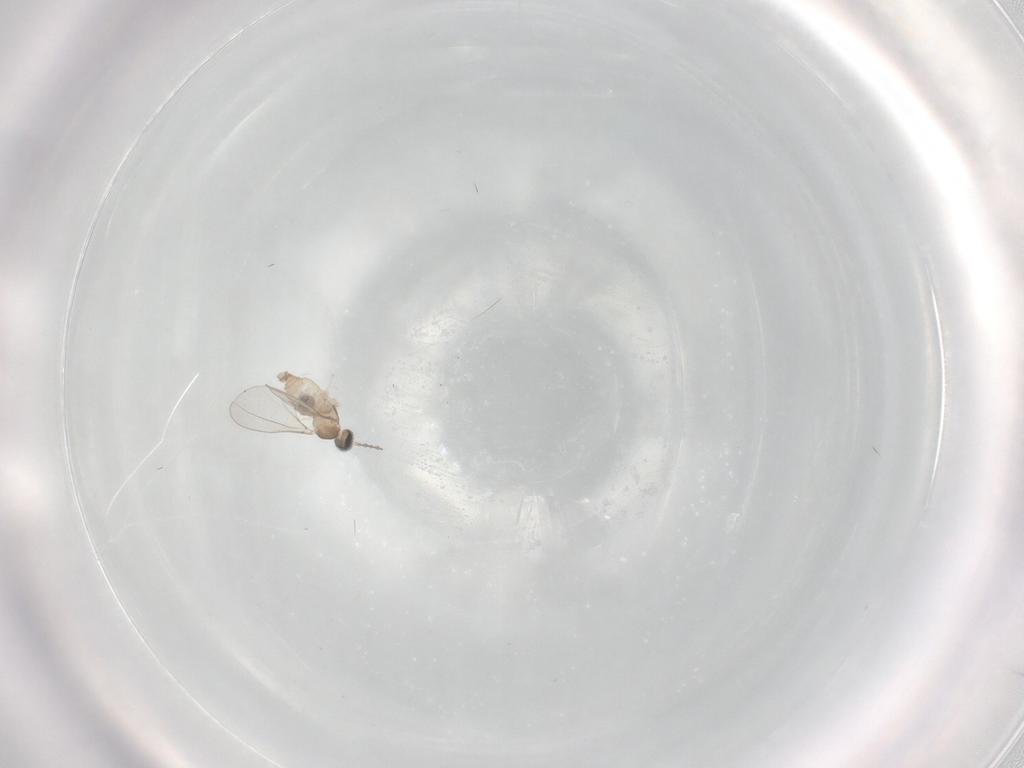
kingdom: Animalia
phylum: Arthropoda
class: Insecta
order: Diptera
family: Cecidomyiidae
